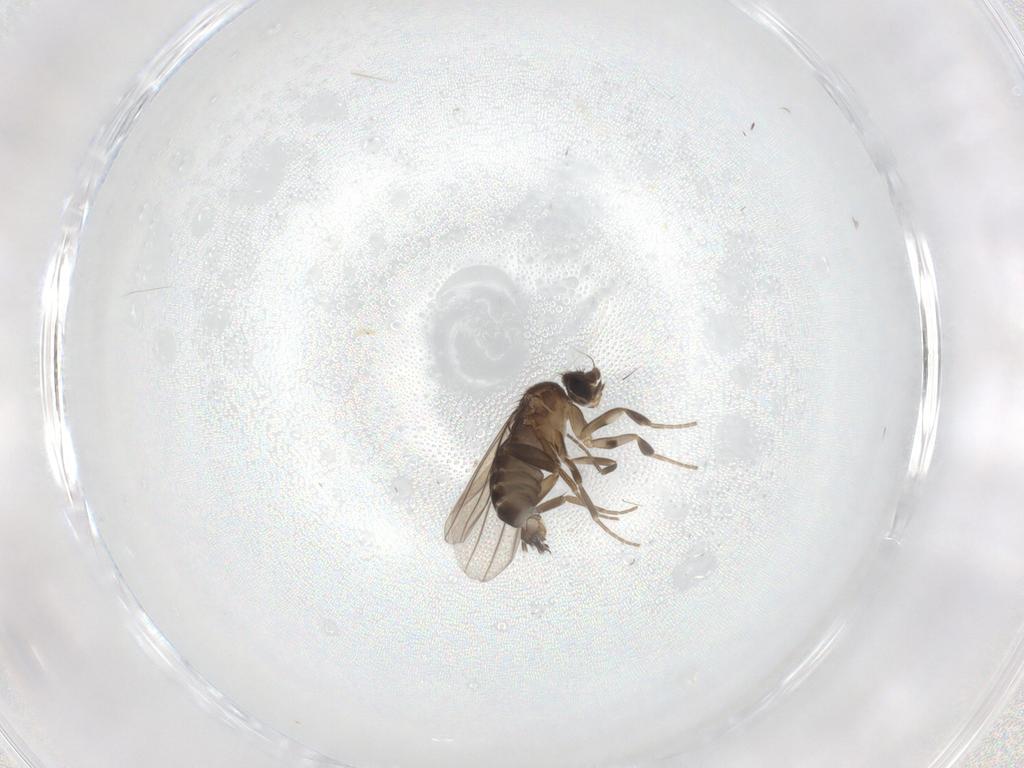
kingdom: Animalia
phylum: Arthropoda
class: Insecta
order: Diptera
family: Phoridae
